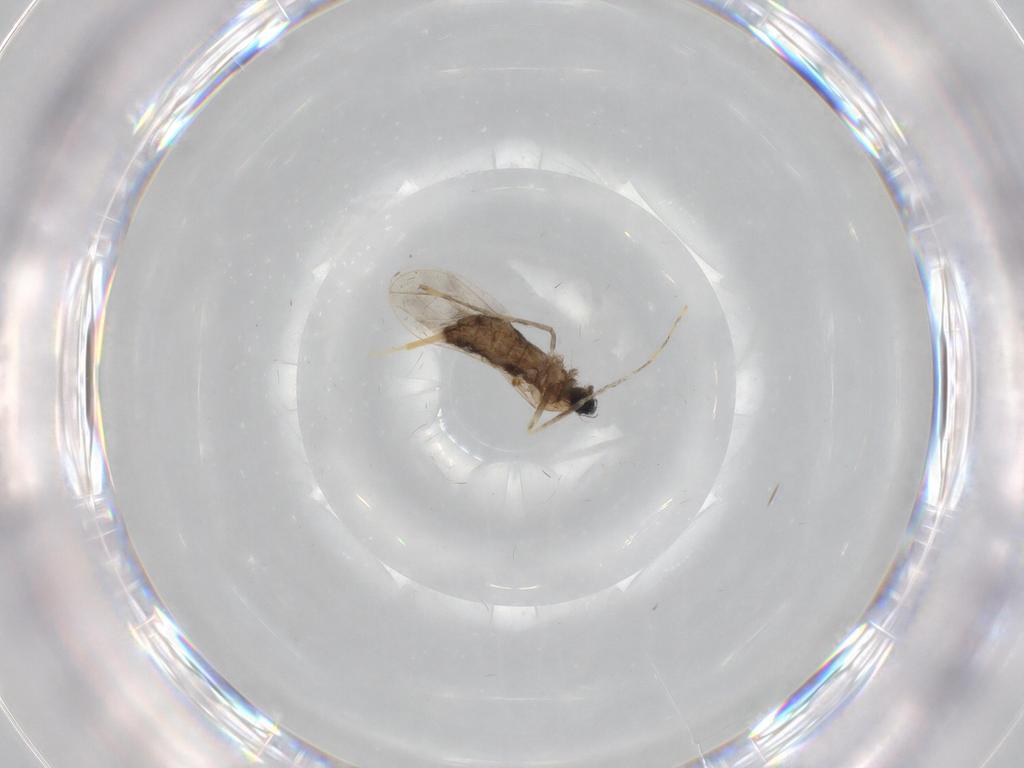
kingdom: Animalia
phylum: Arthropoda
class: Insecta
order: Diptera
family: Cecidomyiidae
